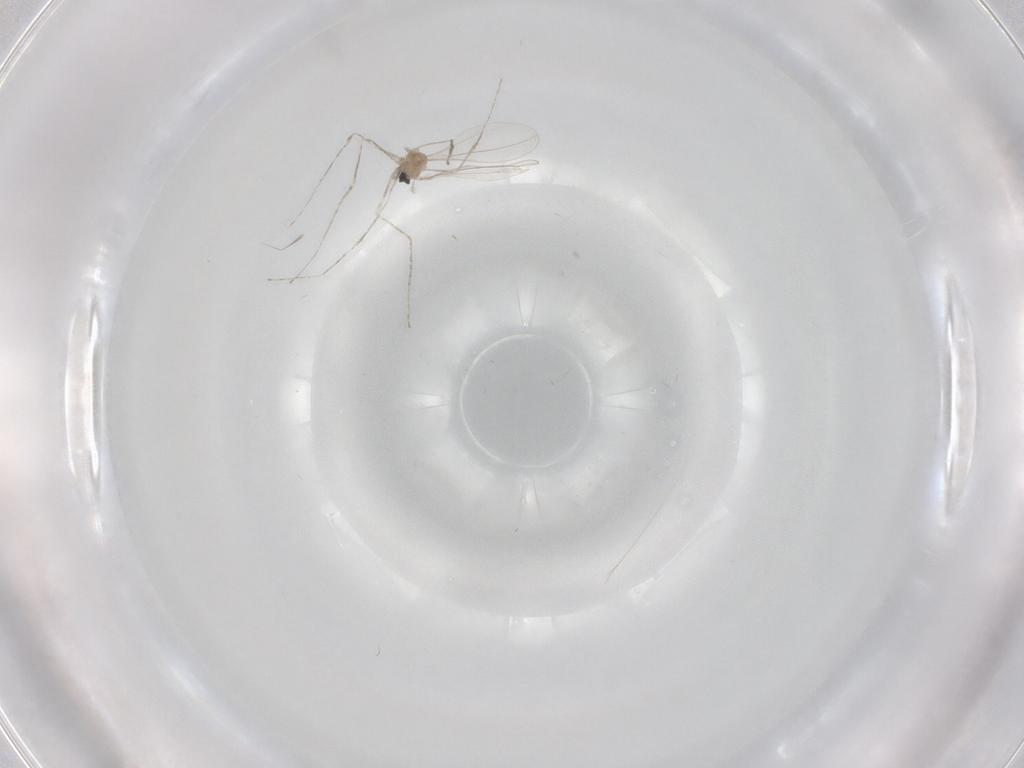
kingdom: Animalia
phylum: Arthropoda
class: Insecta
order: Diptera
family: Cecidomyiidae
